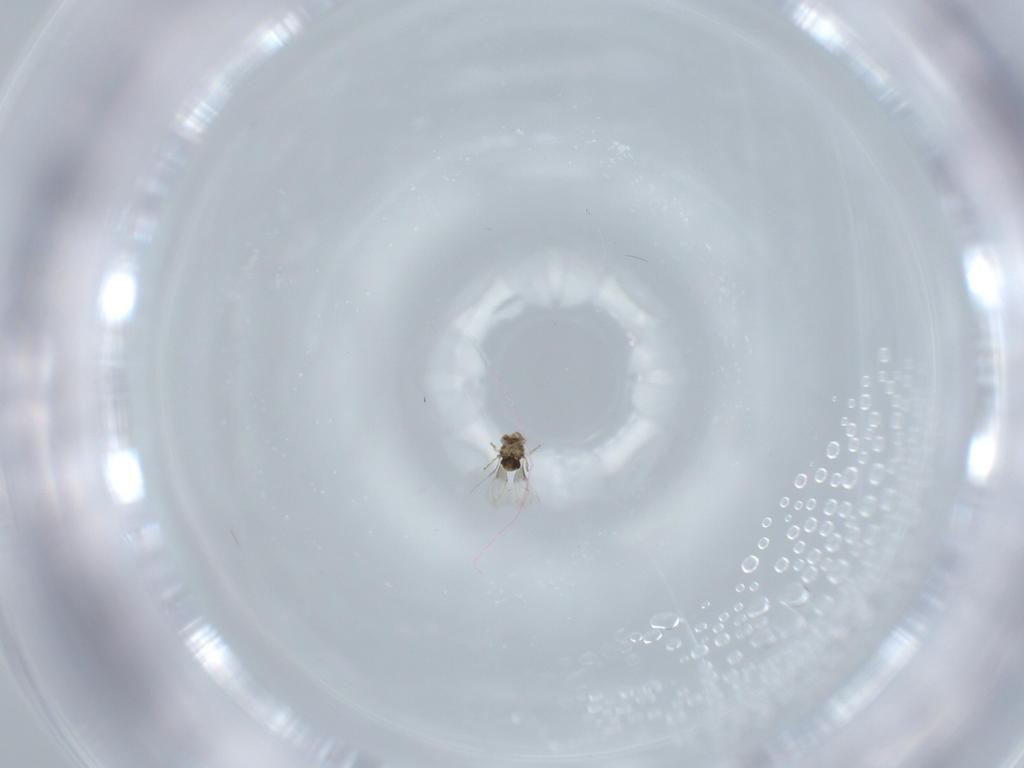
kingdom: Animalia
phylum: Arthropoda
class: Insecta
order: Hymenoptera
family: Aphelinidae
